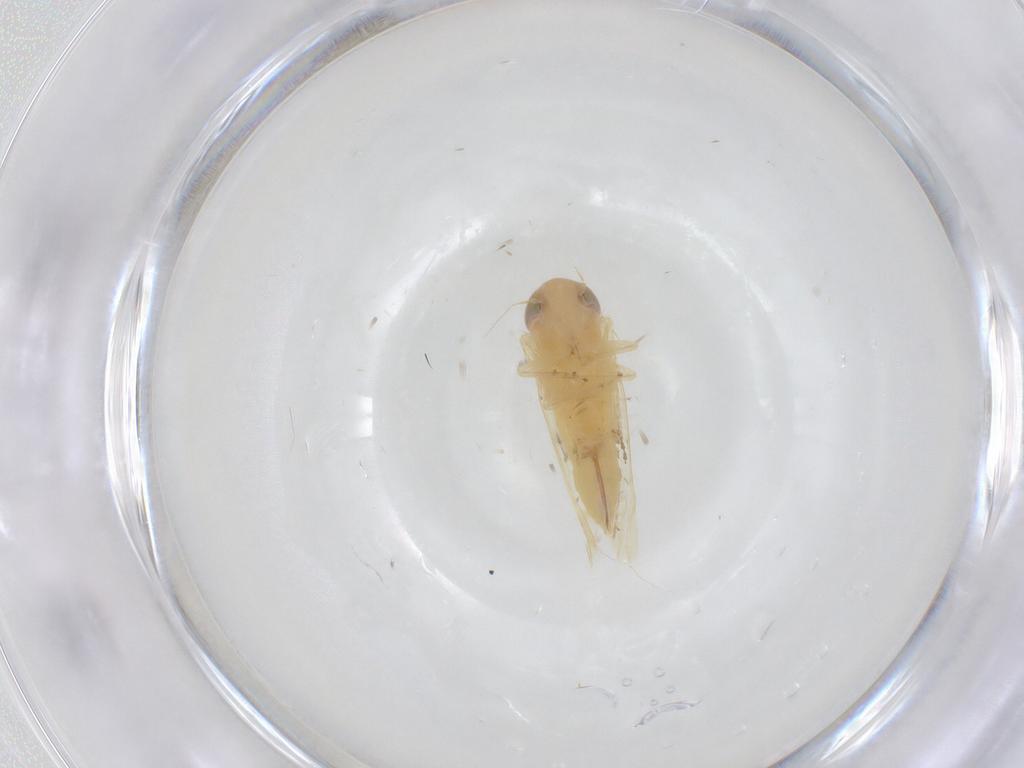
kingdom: Animalia
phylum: Arthropoda
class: Insecta
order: Hemiptera
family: Cicadellidae
